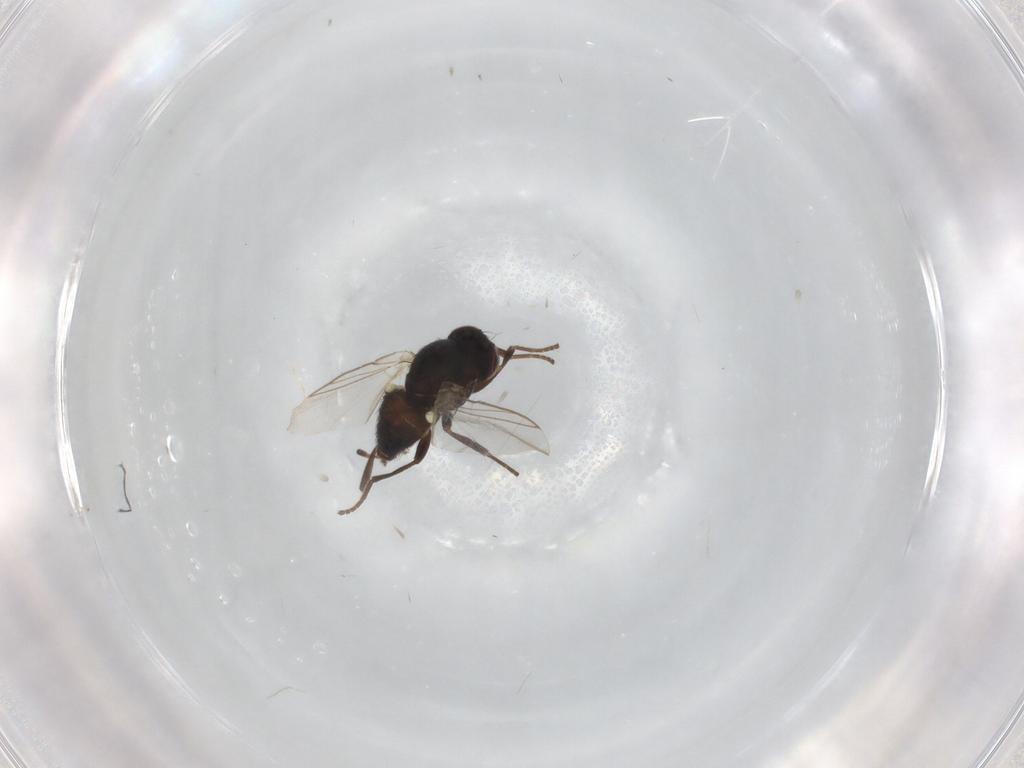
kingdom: Animalia
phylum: Arthropoda
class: Insecta
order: Diptera
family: Agromyzidae
